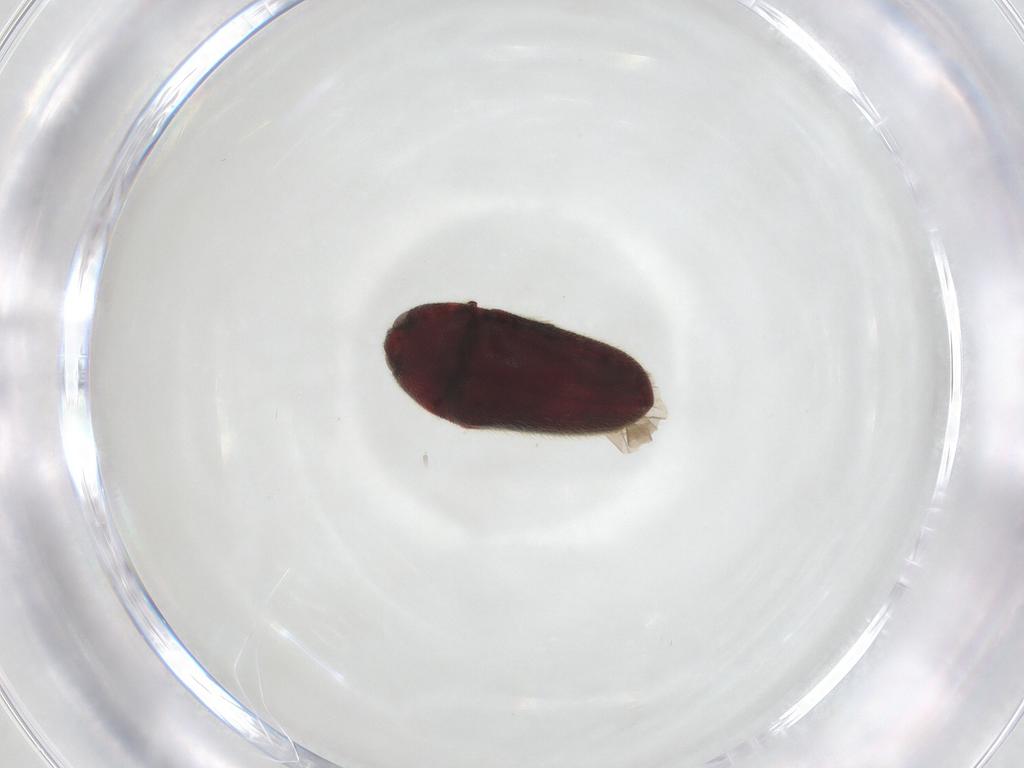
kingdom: Animalia
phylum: Arthropoda
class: Insecta
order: Coleoptera
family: Throscidae
